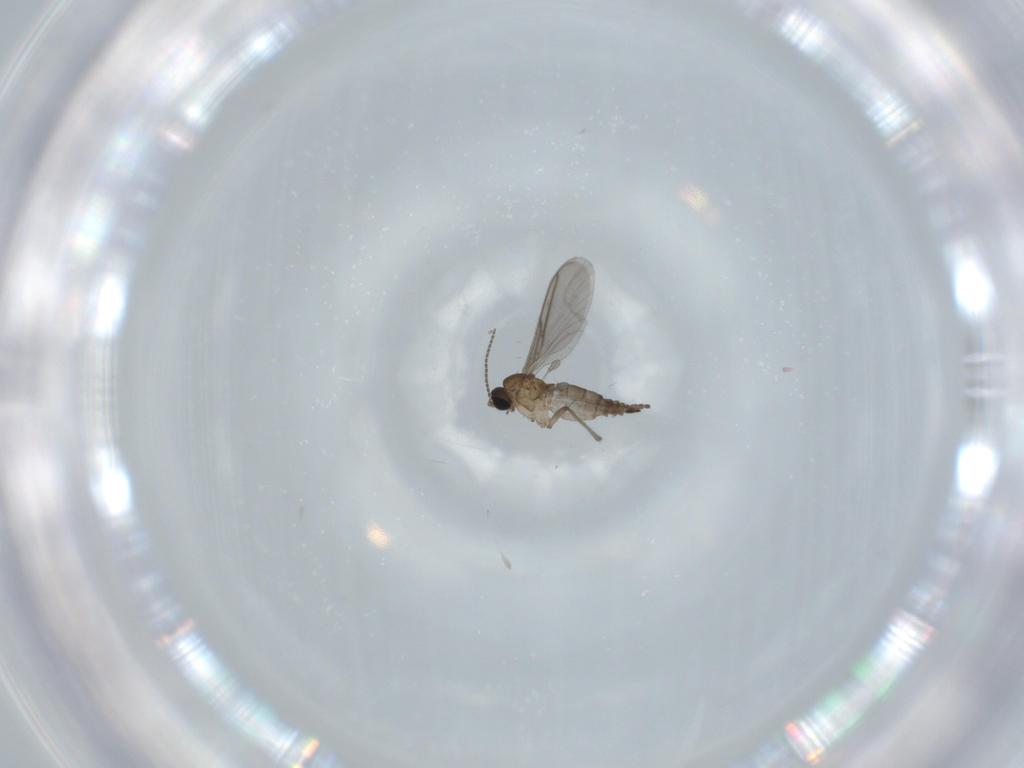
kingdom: Animalia
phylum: Arthropoda
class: Insecta
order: Diptera
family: Sciaridae
